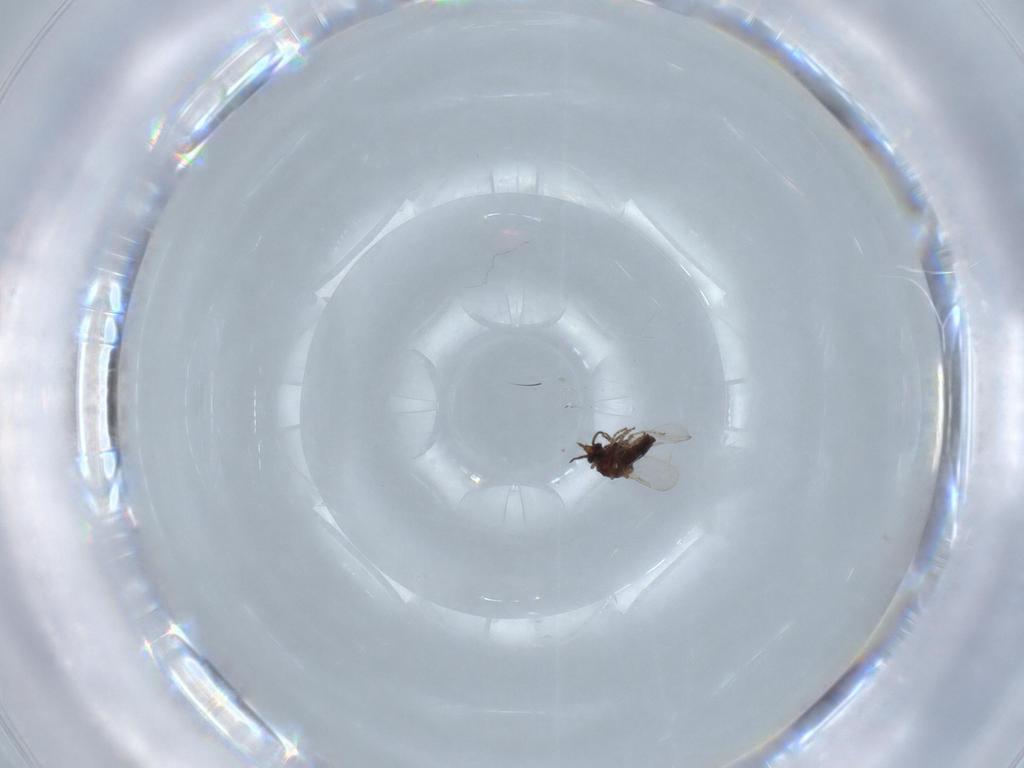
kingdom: Animalia
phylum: Arthropoda
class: Insecta
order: Diptera
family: Ceratopogonidae
